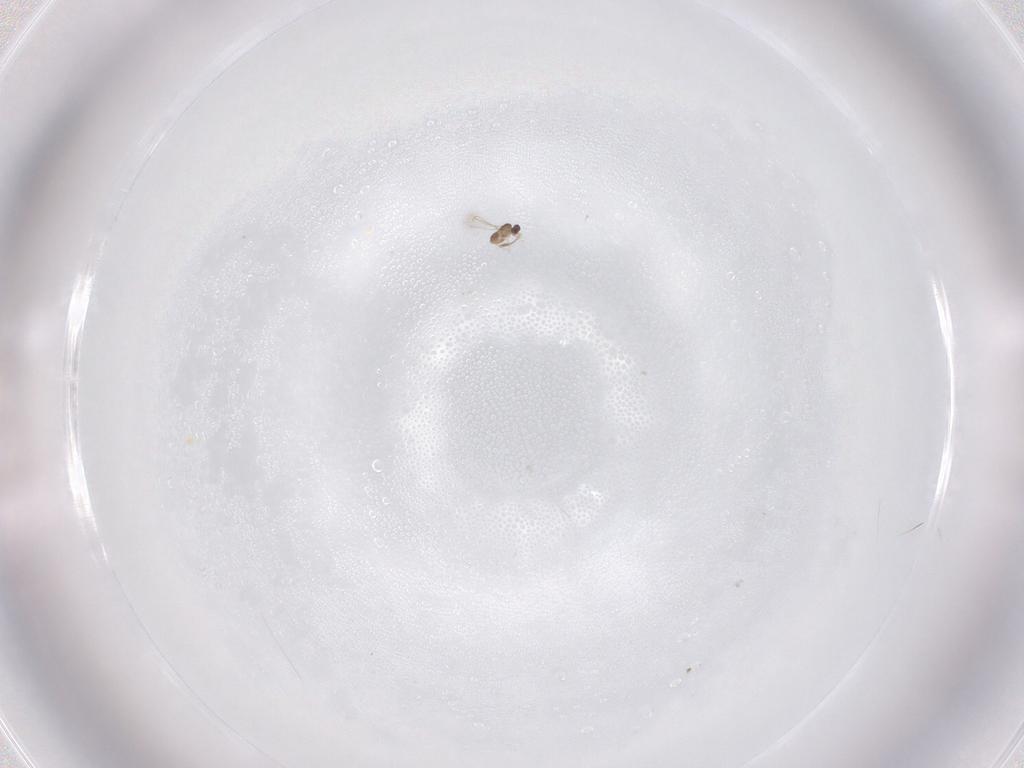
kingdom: Animalia
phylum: Arthropoda
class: Insecta
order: Hymenoptera
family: Mymaridae
